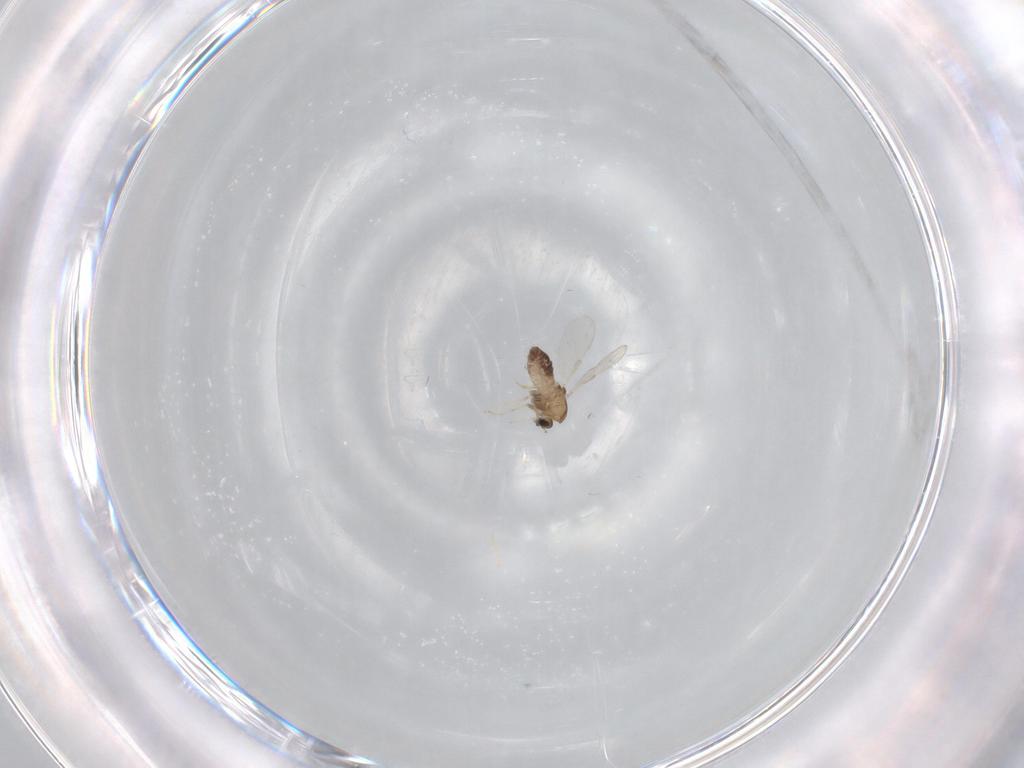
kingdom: Animalia
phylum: Arthropoda
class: Insecta
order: Diptera
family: Chironomidae
